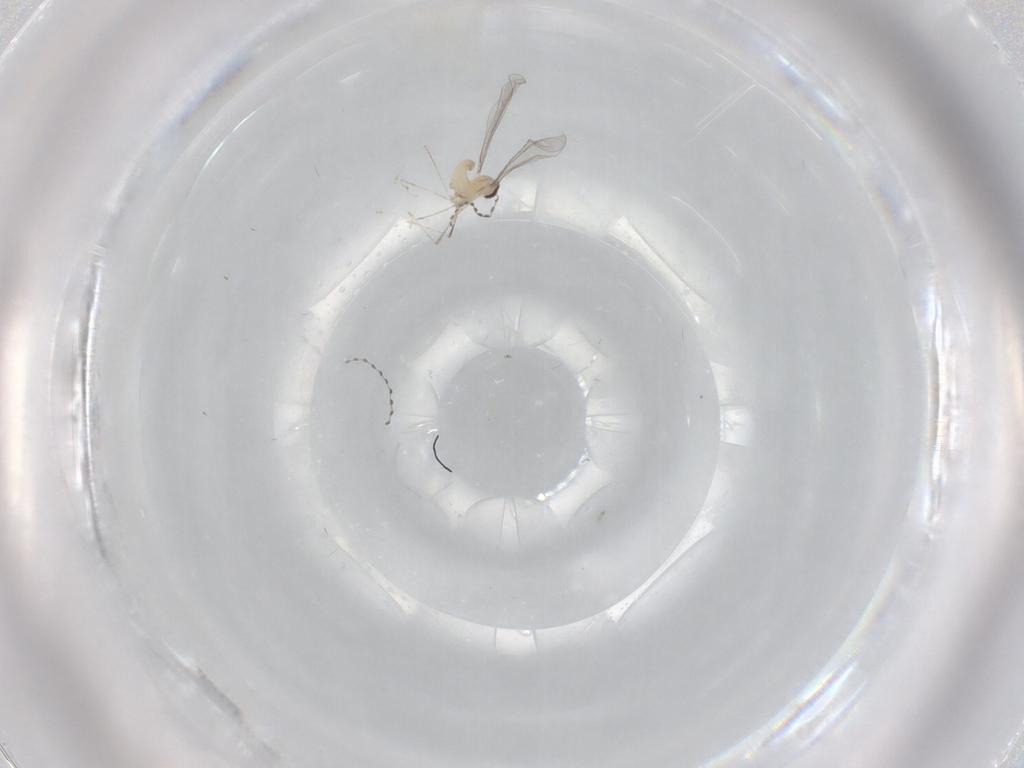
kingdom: Animalia
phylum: Arthropoda
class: Insecta
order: Diptera
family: Cecidomyiidae
